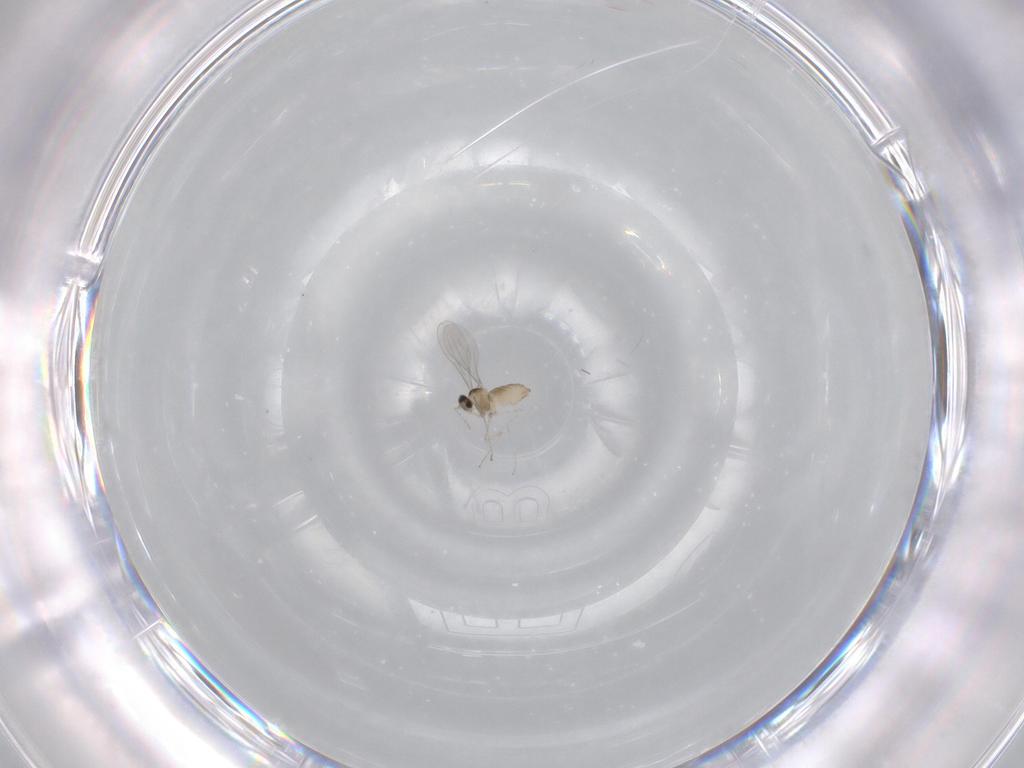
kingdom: Animalia
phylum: Arthropoda
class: Insecta
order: Diptera
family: Cecidomyiidae
